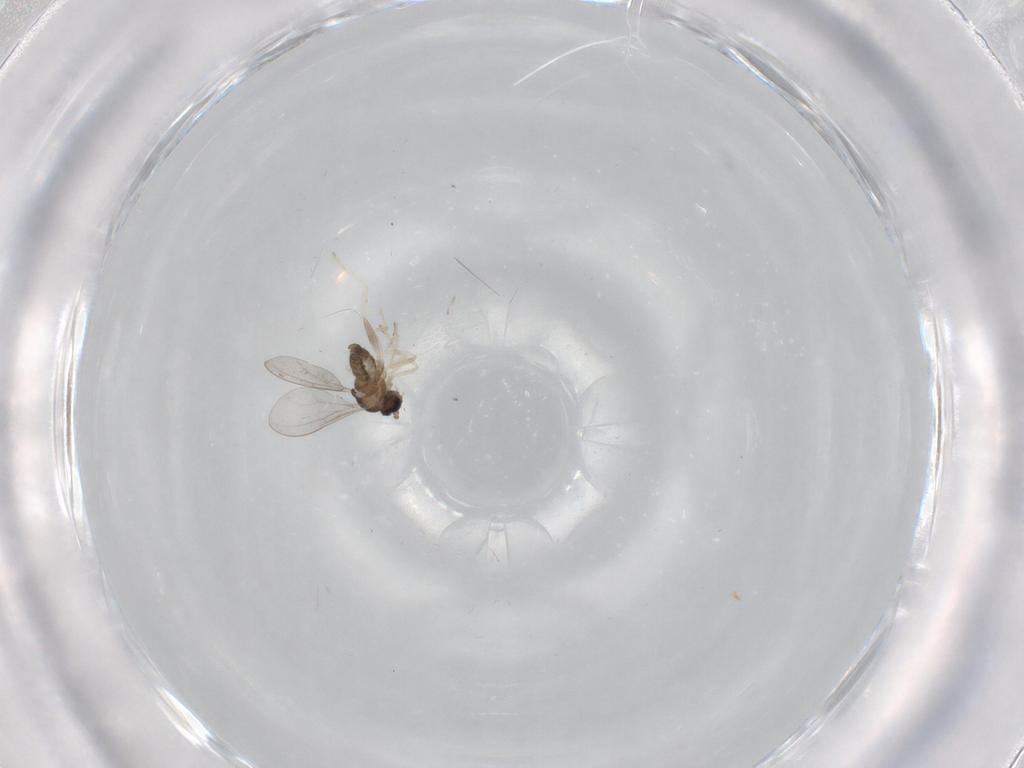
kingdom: Animalia
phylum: Arthropoda
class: Insecta
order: Diptera
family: Cecidomyiidae
